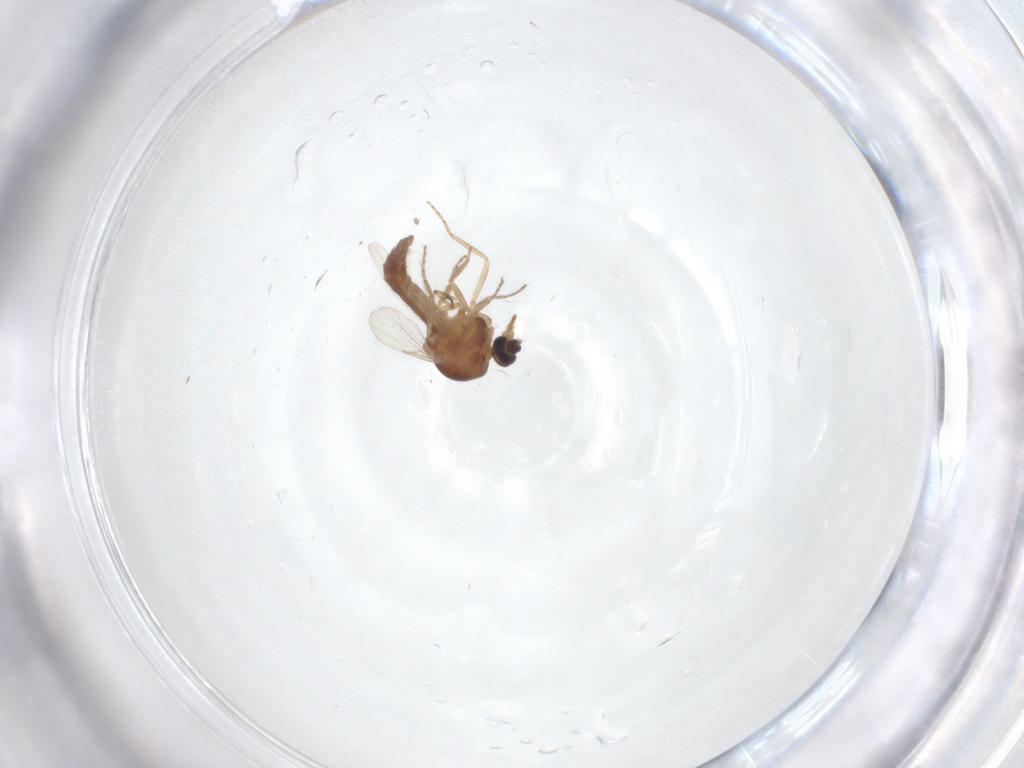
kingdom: Animalia
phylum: Arthropoda
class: Insecta
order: Diptera
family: Ceratopogonidae
